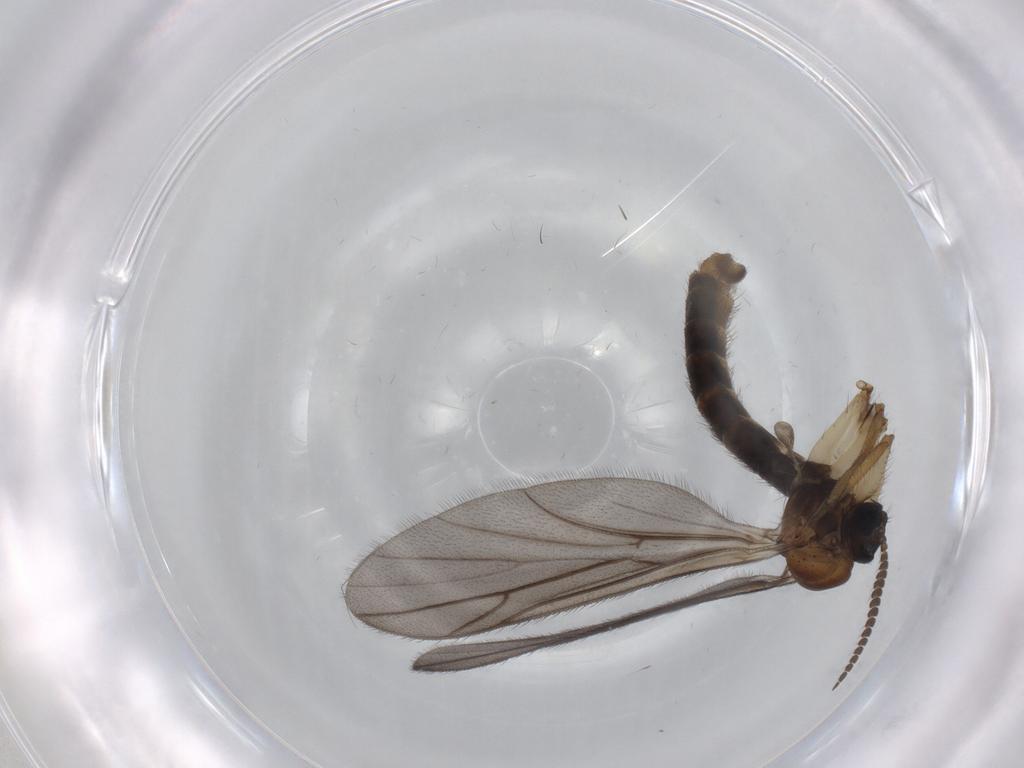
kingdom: Animalia
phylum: Arthropoda
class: Insecta
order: Diptera
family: Cecidomyiidae
